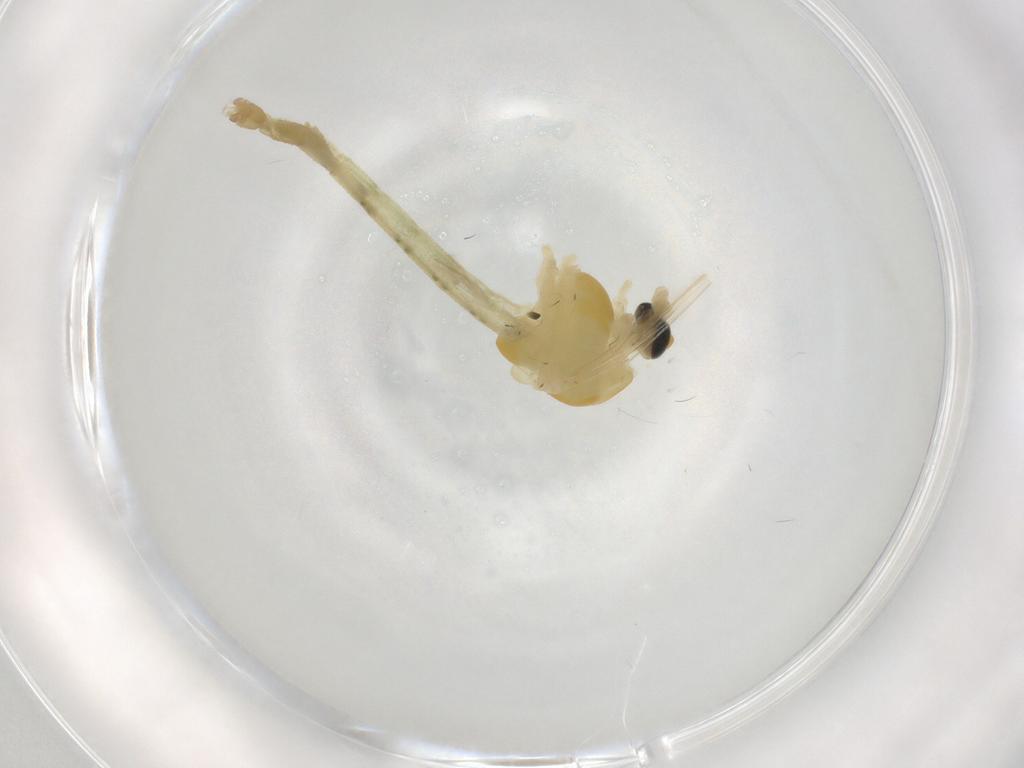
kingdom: Animalia
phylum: Arthropoda
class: Insecta
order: Diptera
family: Chironomidae
